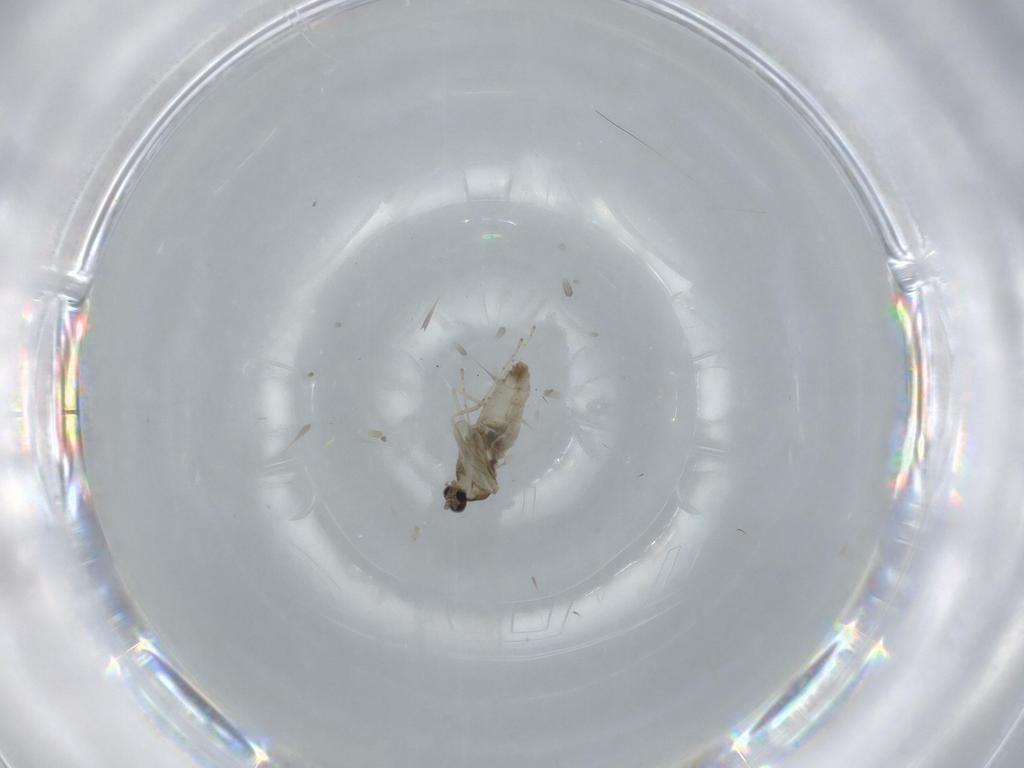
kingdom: Animalia
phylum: Arthropoda
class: Insecta
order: Diptera
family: Cecidomyiidae
